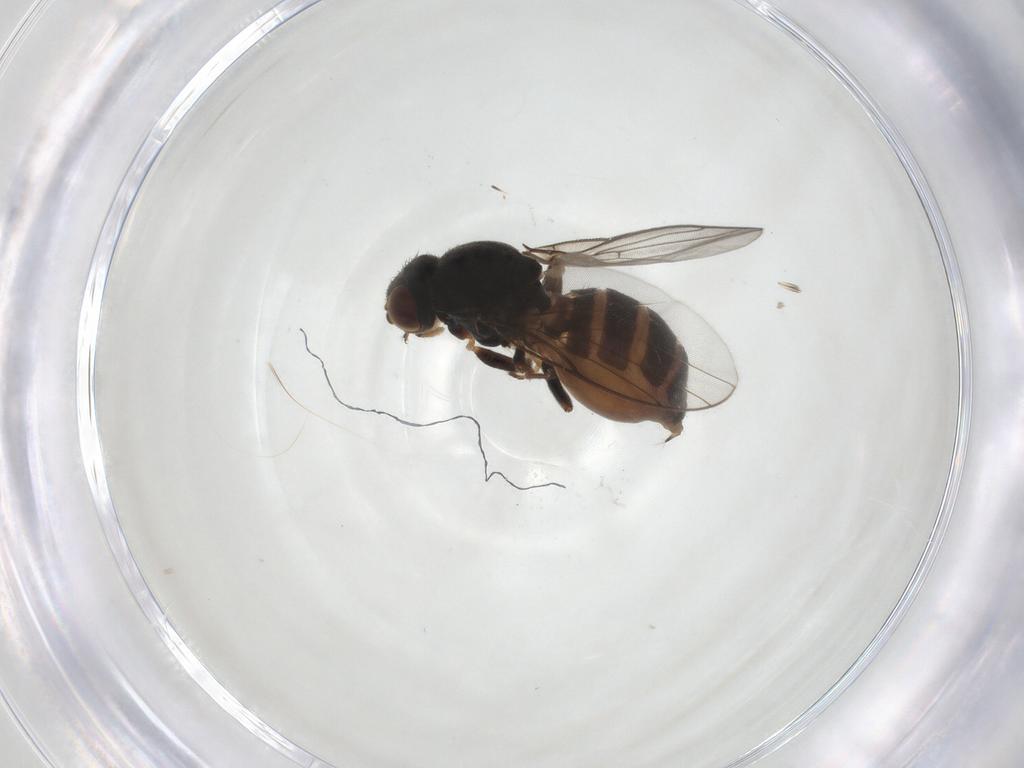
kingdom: Animalia
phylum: Arthropoda
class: Insecta
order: Diptera
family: Chloropidae
